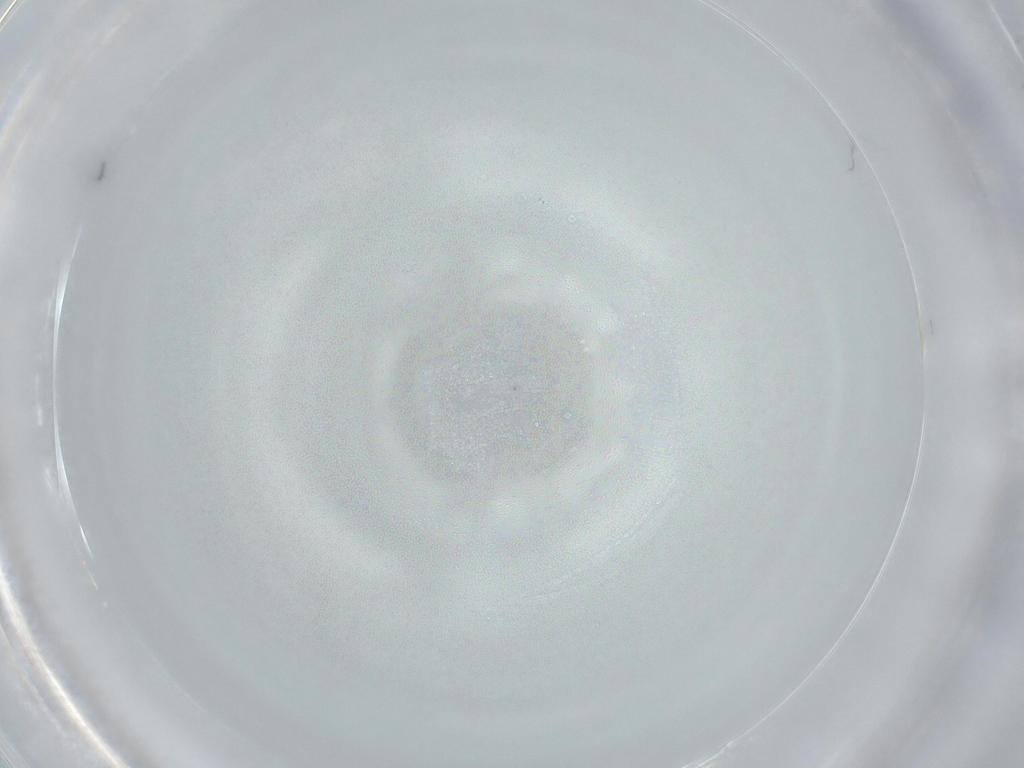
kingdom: Animalia
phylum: Arthropoda
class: Insecta
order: Diptera
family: Milichiidae
